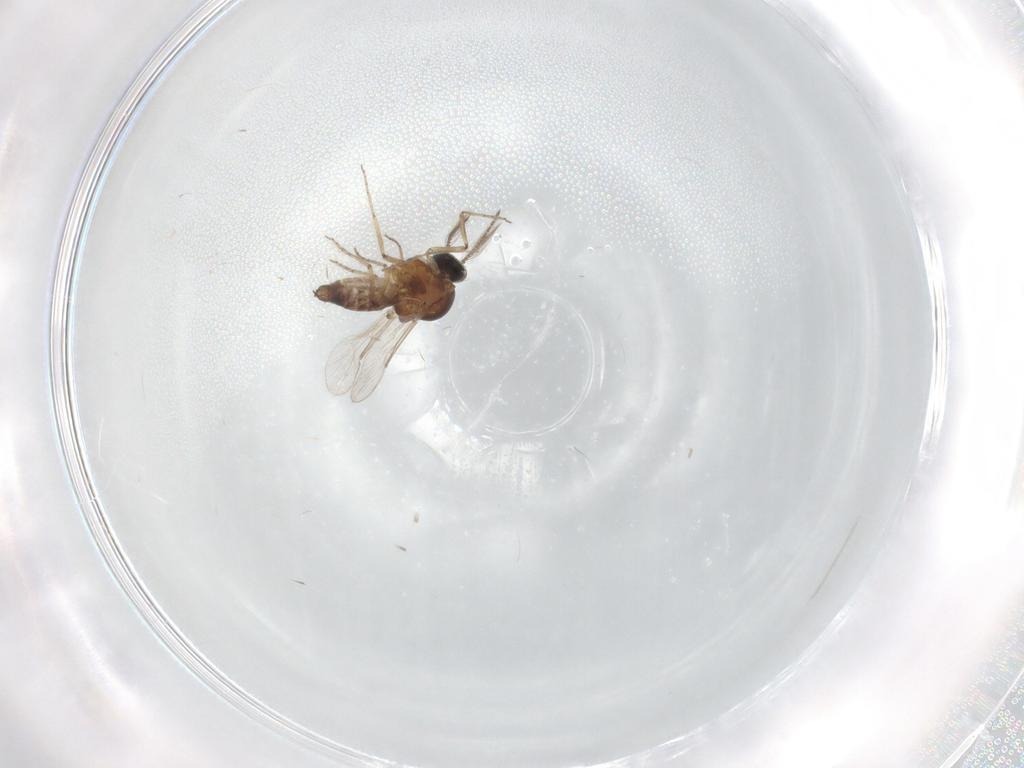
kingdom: Animalia
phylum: Arthropoda
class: Insecta
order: Diptera
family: Ceratopogonidae
